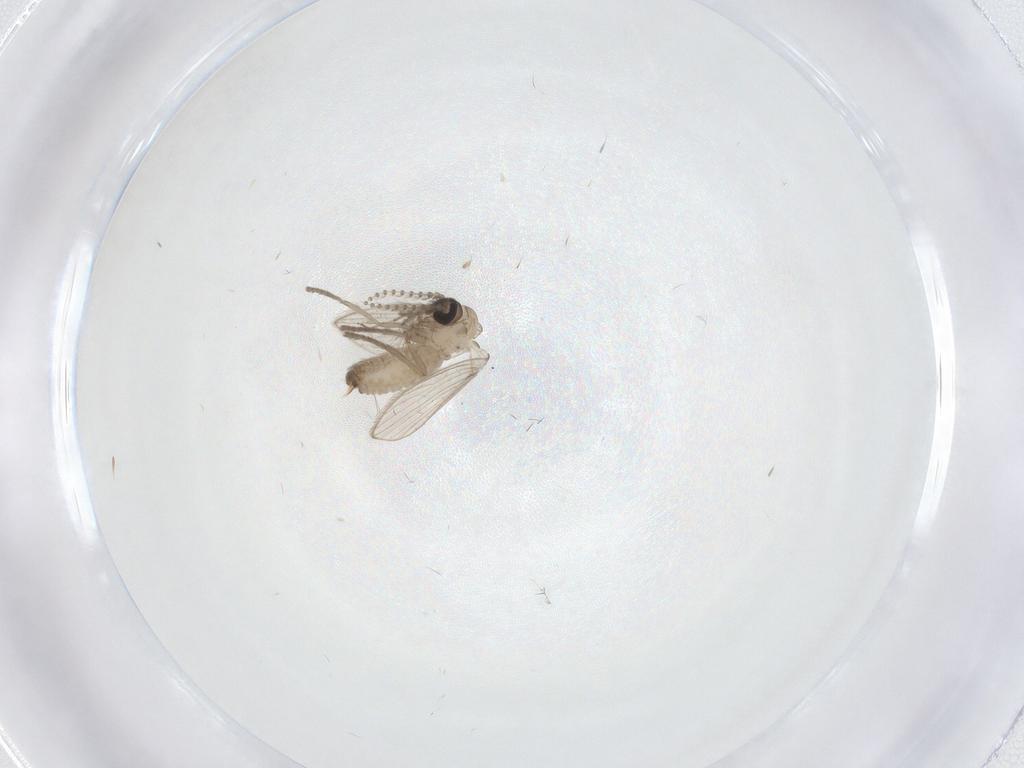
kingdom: Animalia
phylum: Arthropoda
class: Insecta
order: Diptera
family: Psychodidae
